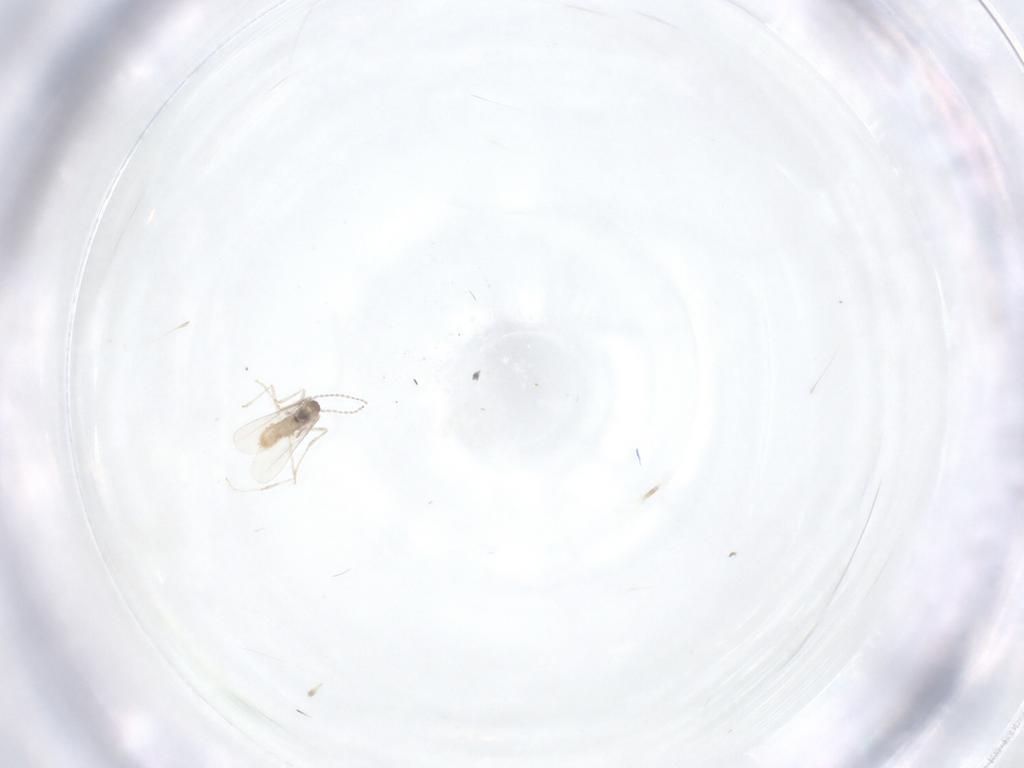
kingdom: Animalia
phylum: Arthropoda
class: Insecta
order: Diptera
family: Cecidomyiidae
